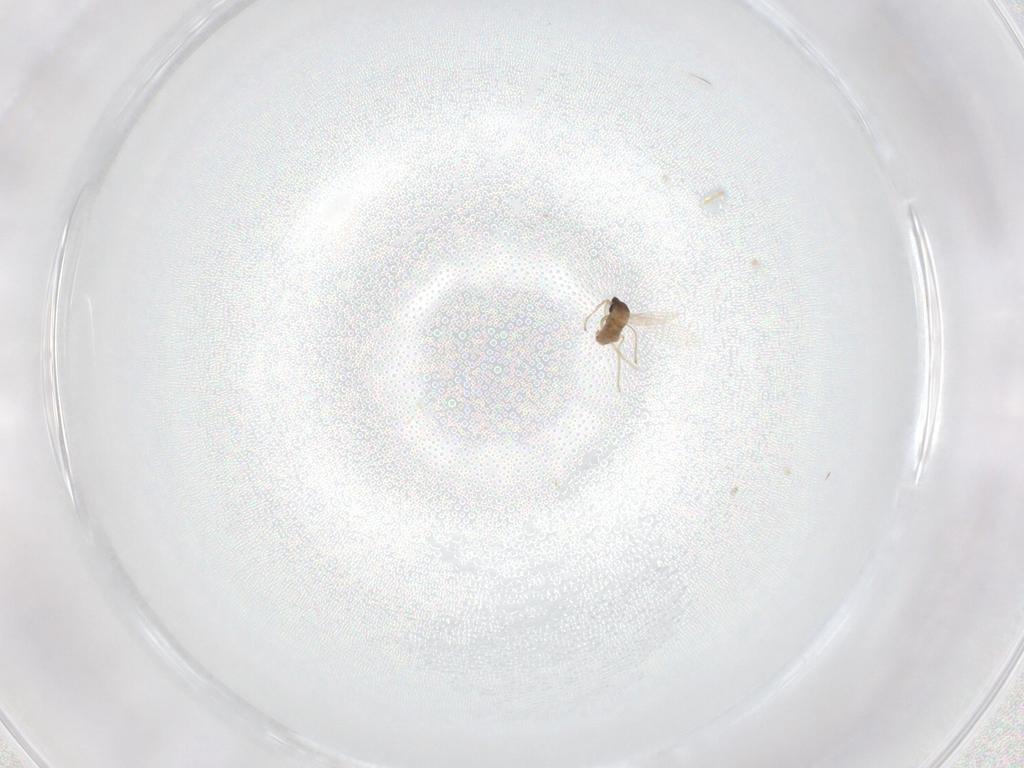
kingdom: Animalia
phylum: Arthropoda
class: Insecta
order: Diptera
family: Cecidomyiidae
